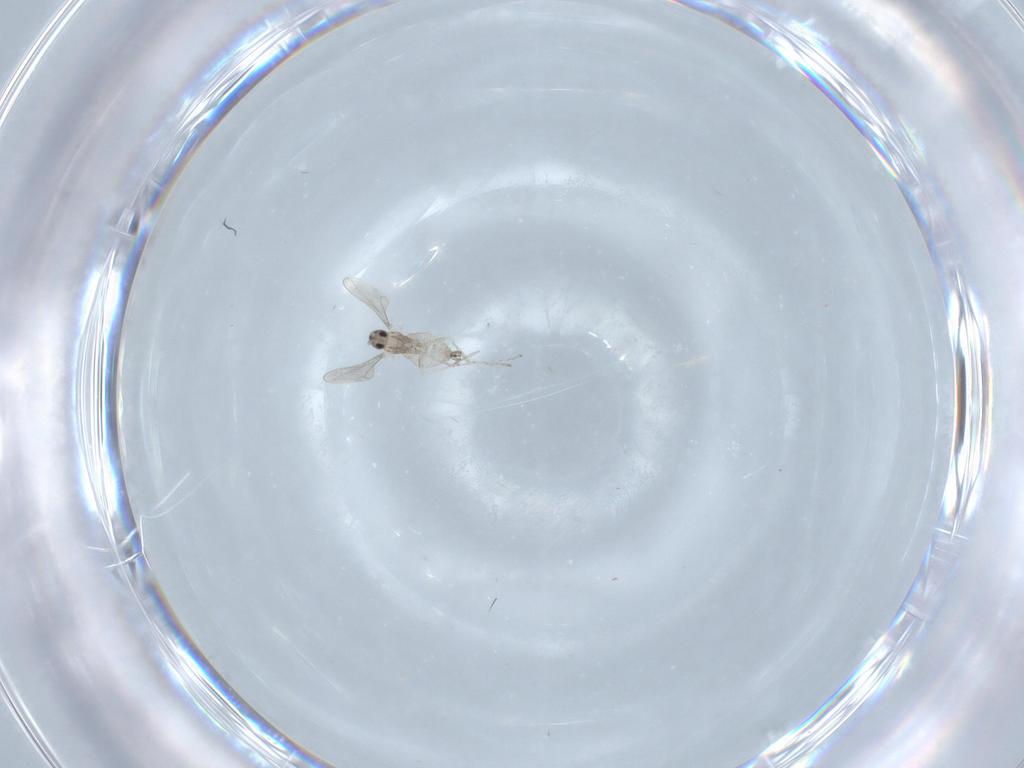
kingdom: Animalia
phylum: Arthropoda
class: Insecta
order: Diptera
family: Cecidomyiidae
